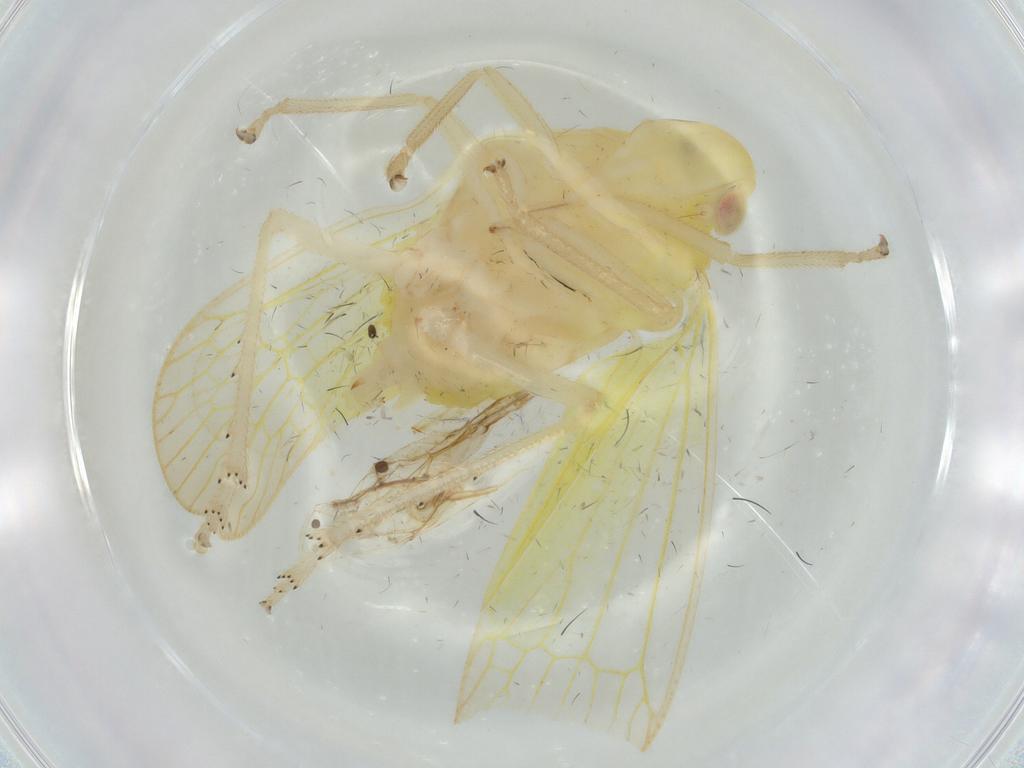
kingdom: Animalia
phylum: Arthropoda
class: Insecta
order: Hemiptera
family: Tropiduchidae
